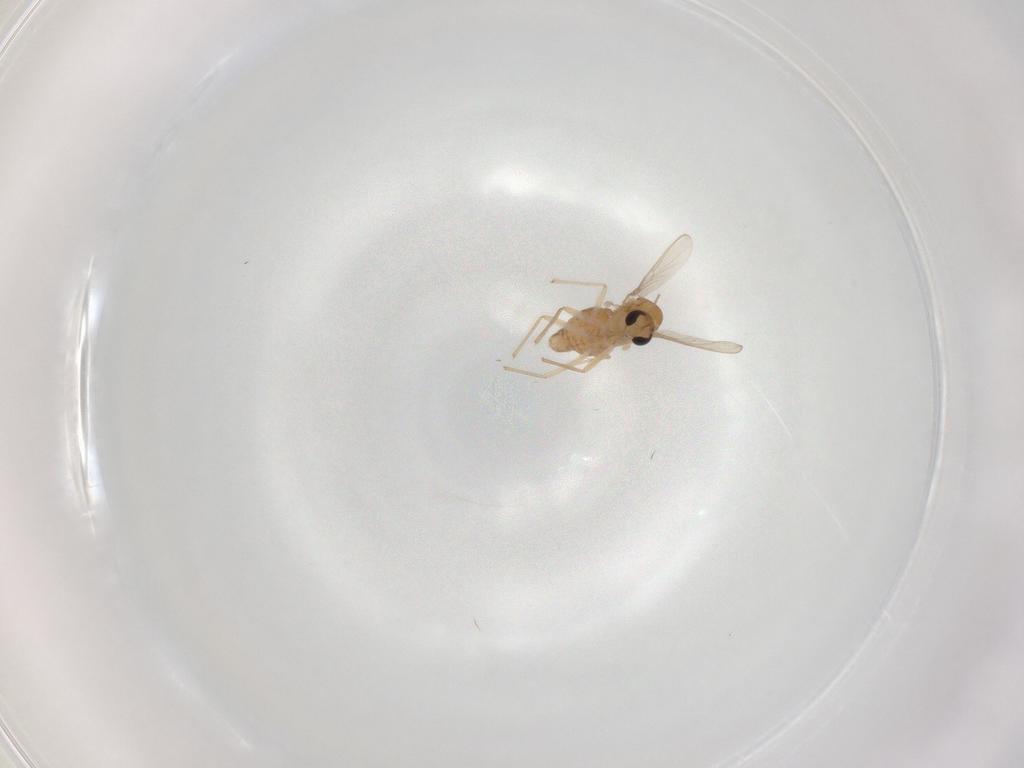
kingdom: Animalia
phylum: Arthropoda
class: Insecta
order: Diptera
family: Chironomidae
